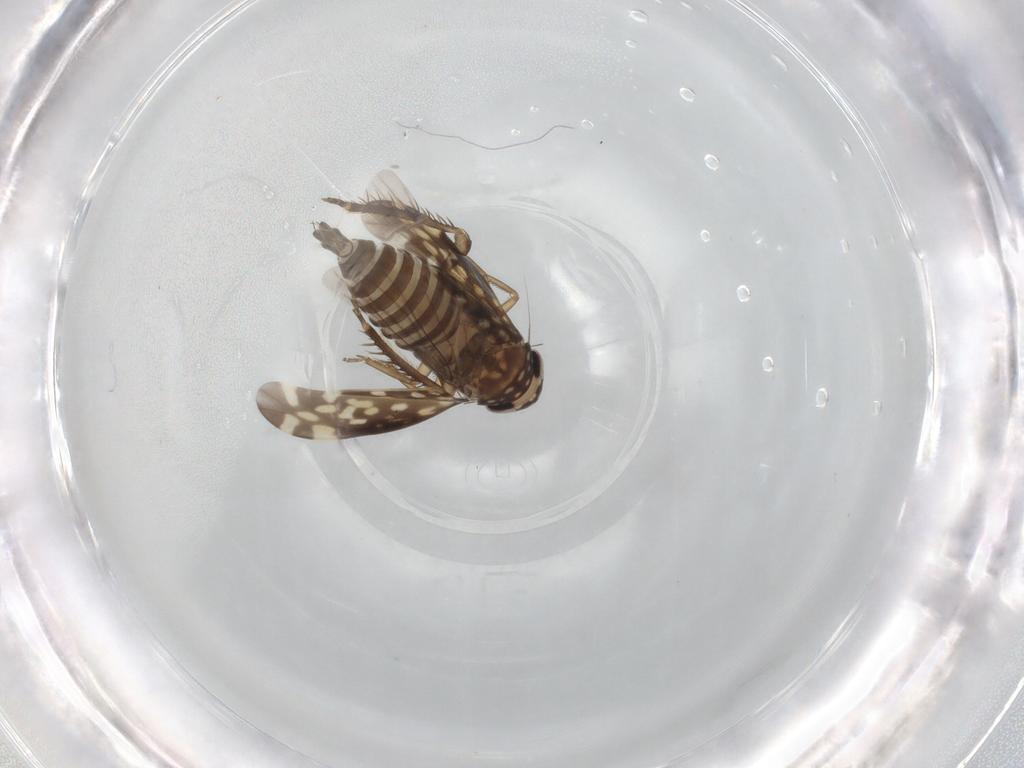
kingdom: Animalia
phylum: Arthropoda
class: Insecta
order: Hemiptera
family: Cicadellidae
